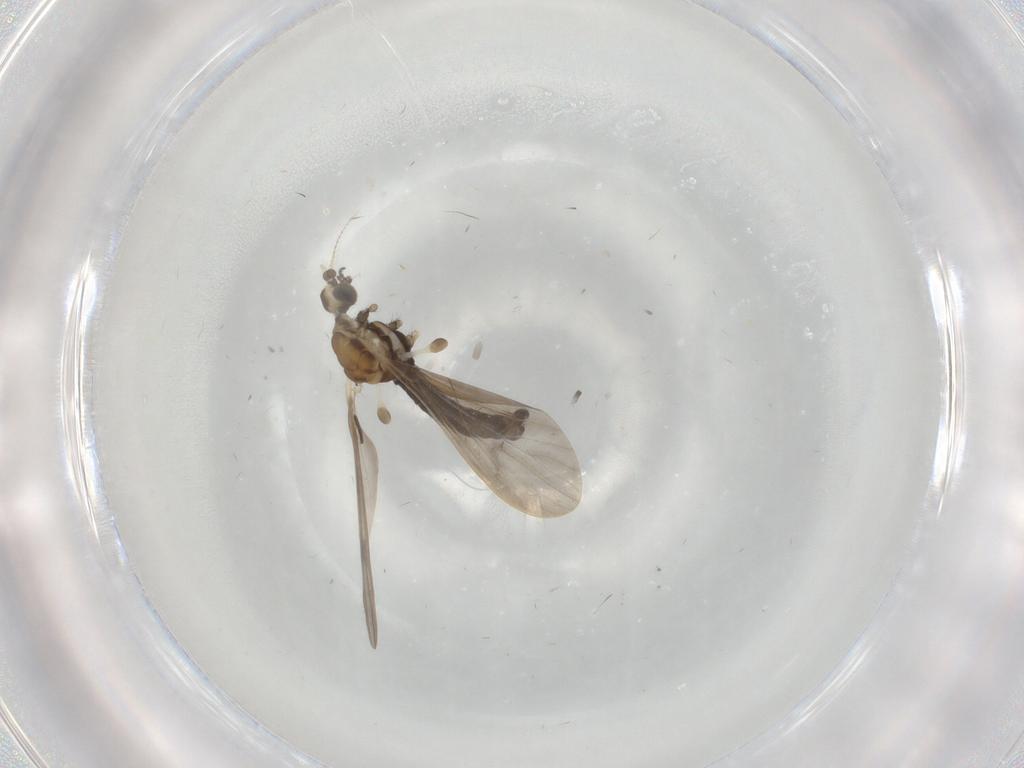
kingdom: Animalia
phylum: Arthropoda
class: Insecta
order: Diptera
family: Cecidomyiidae
